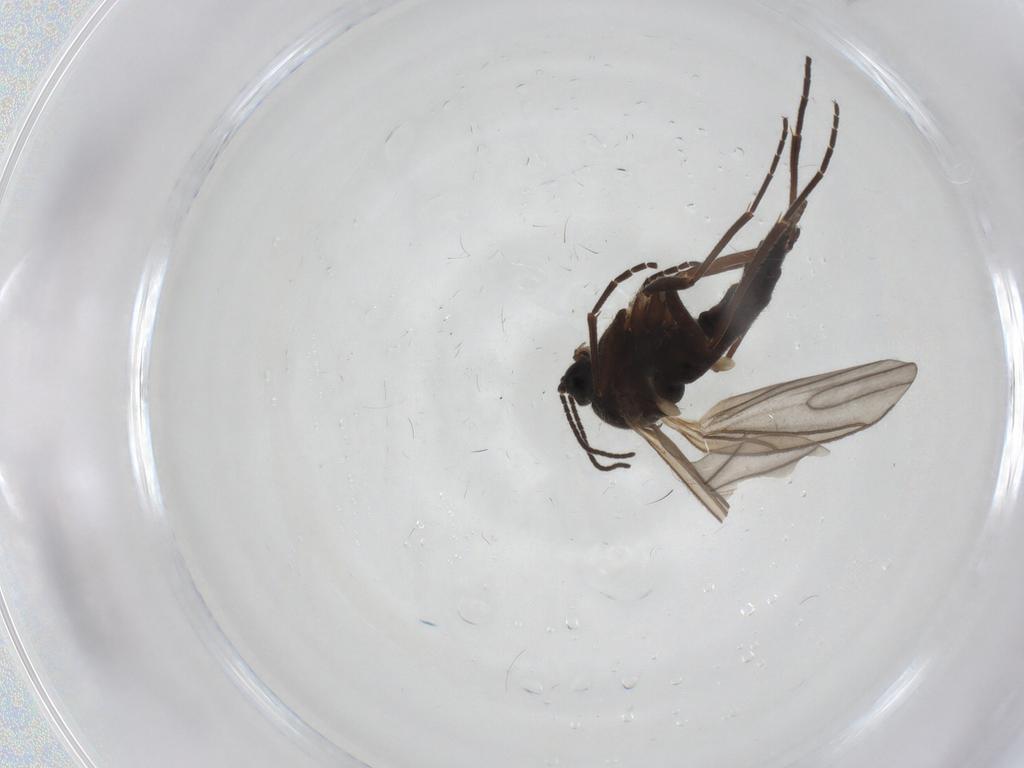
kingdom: Animalia
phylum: Arthropoda
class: Insecta
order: Diptera
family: Sciaridae
